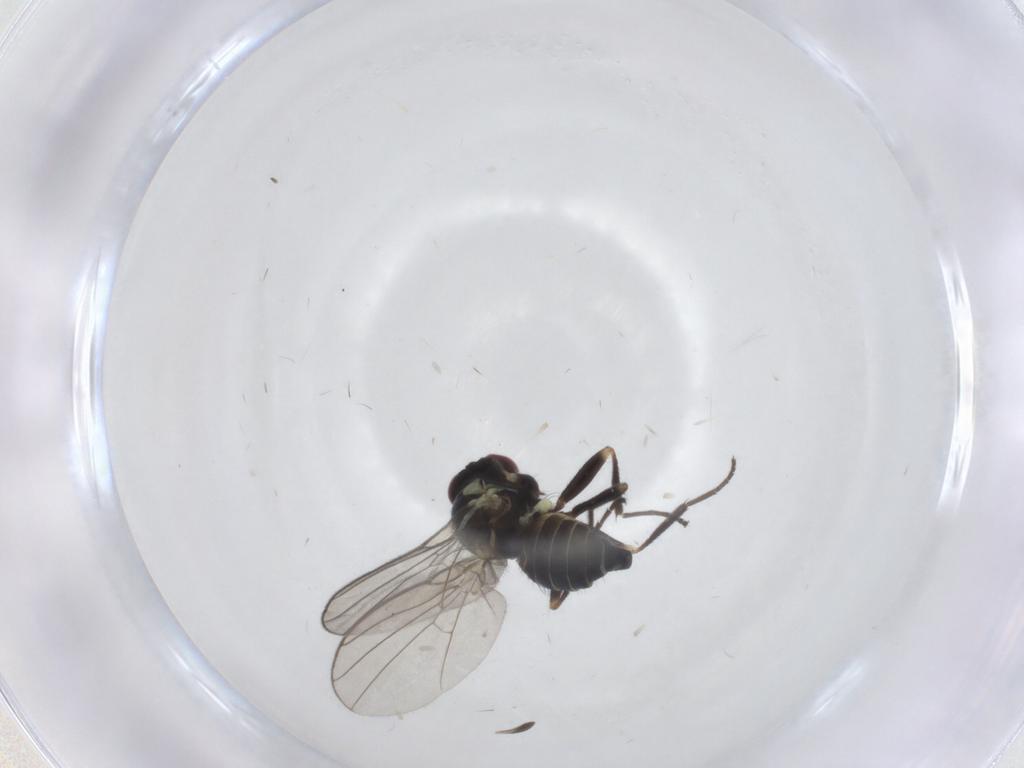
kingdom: Animalia
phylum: Arthropoda
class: Insecta
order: Diptera
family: Agromyzidae
